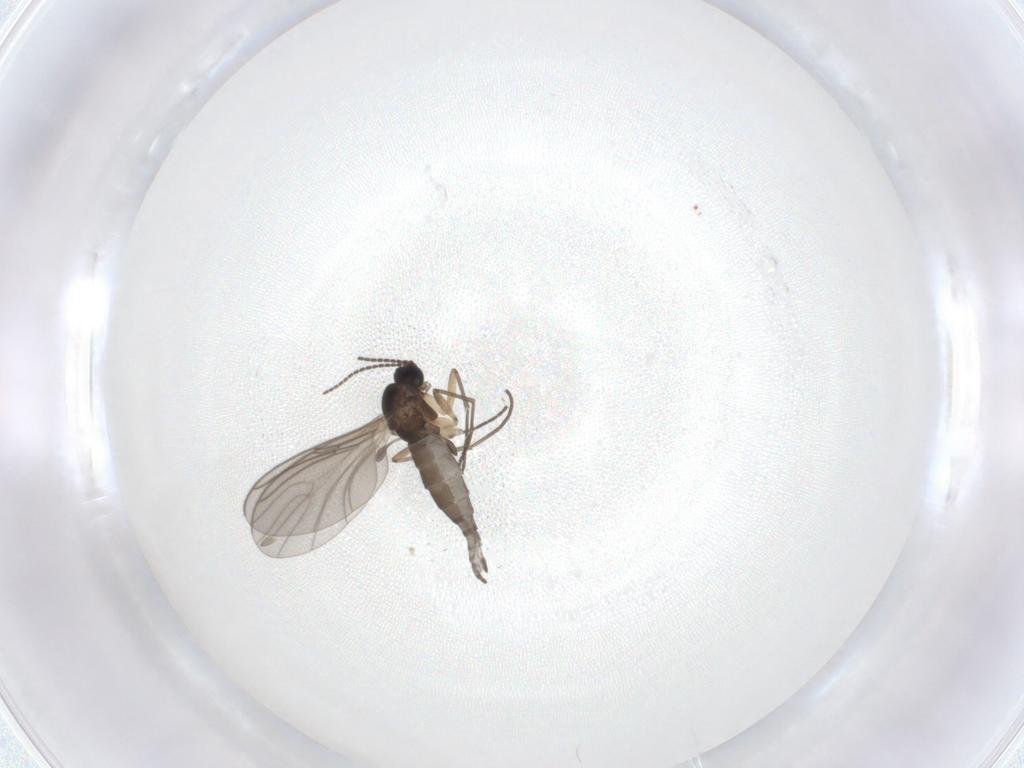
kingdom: Animalia
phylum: Arthropoda
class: Insecta
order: Diptera
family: Sciaridae
